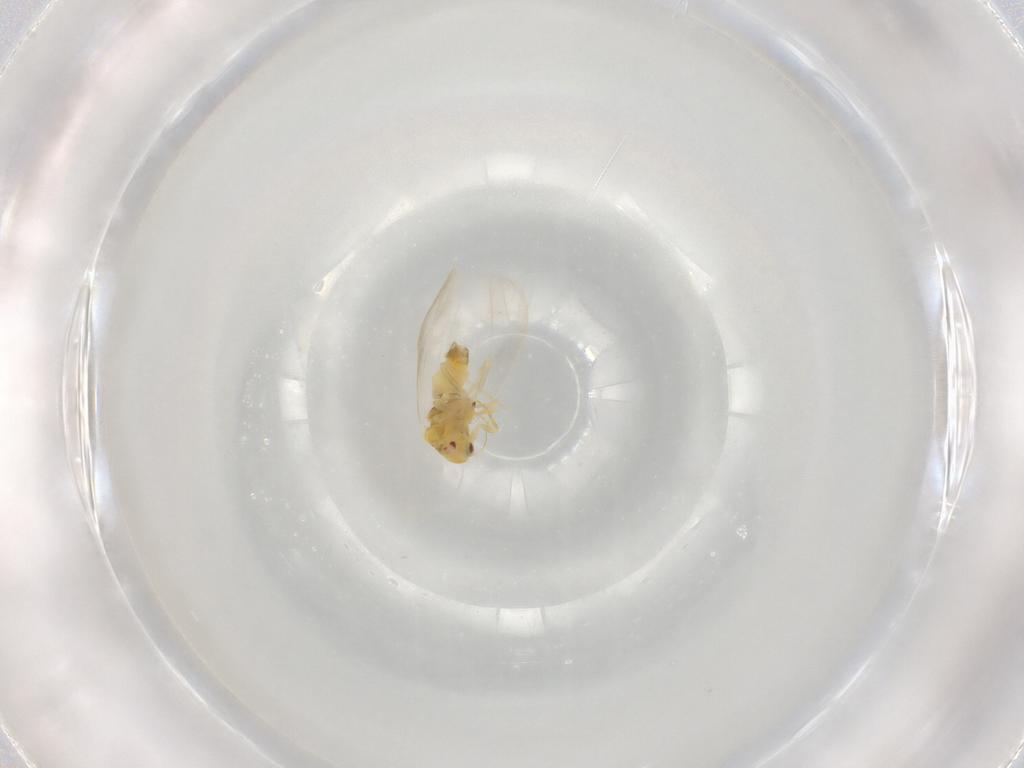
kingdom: Animalia
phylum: Arthropoda
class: Insecta
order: Hemiptera
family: Aleyrodidae
